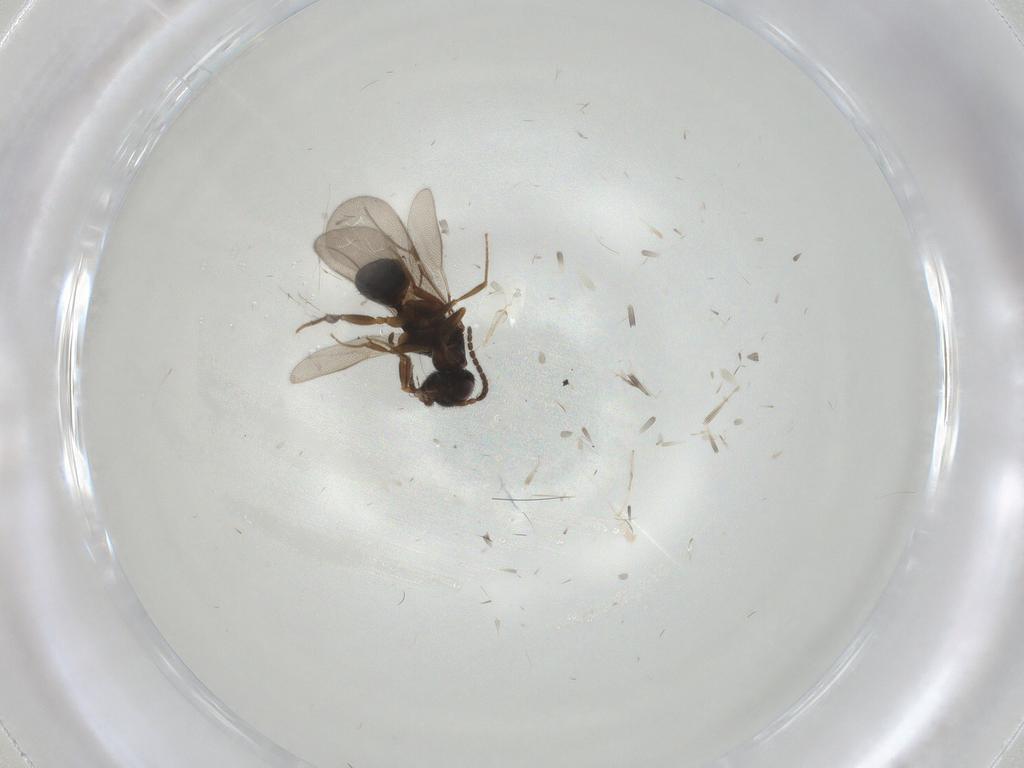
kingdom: Animalia
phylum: Arthropoda
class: Insecta
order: Hymenoptera
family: Bethylidae
